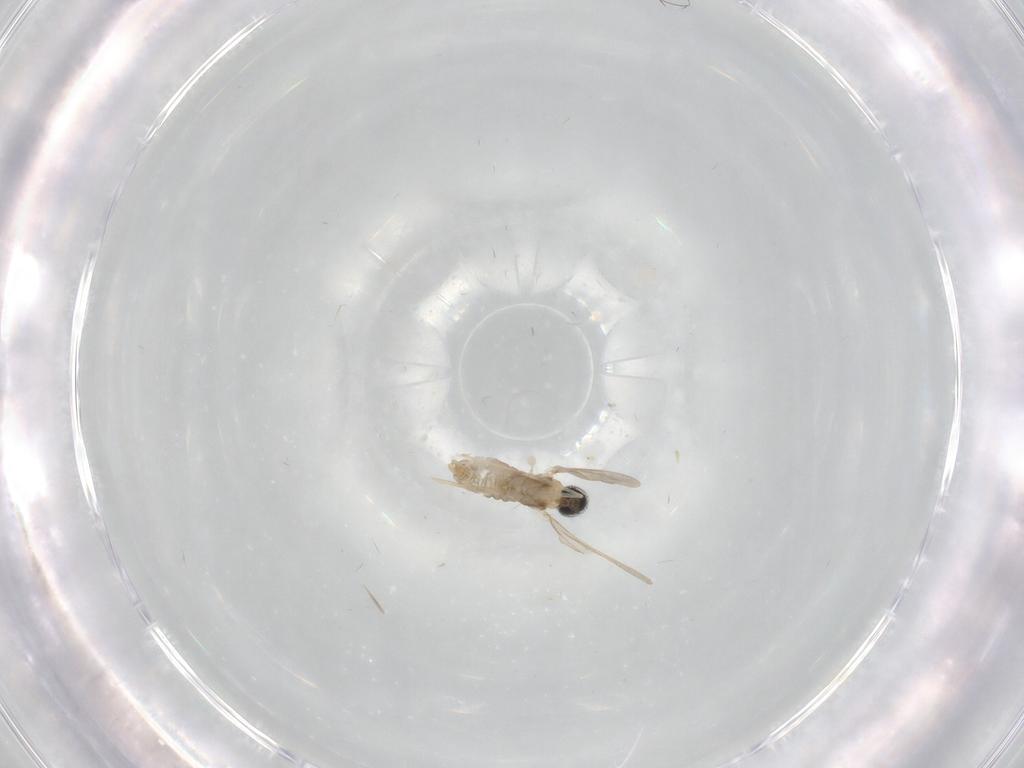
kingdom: Animalia
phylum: Arthropoda
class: Insecta
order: Diptera
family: Cecidomyiidae
